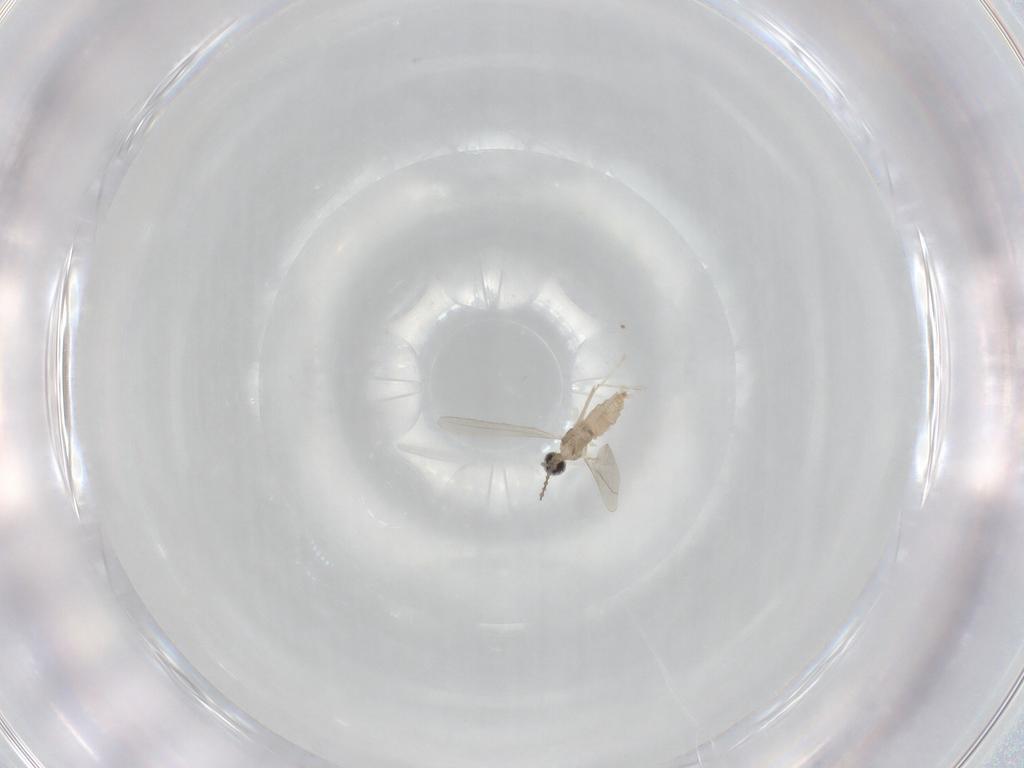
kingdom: Animalia
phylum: Arthropoda
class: Insecta
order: Diptera
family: Cecidomyiidae
